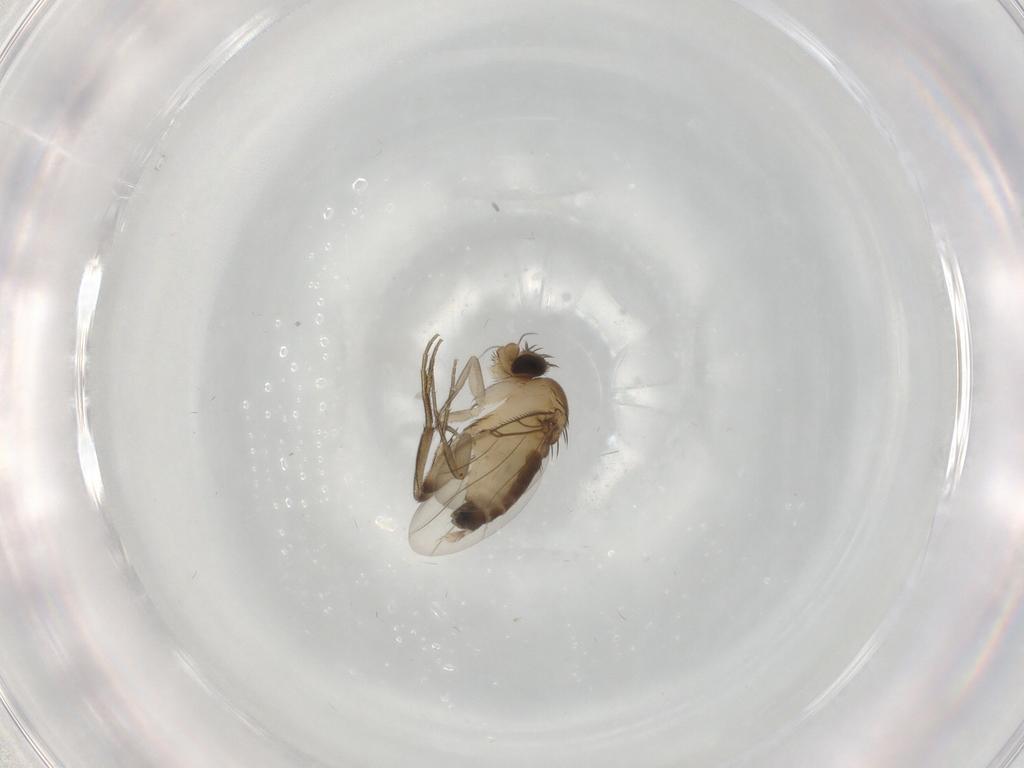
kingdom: Animalia
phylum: Arthropoda
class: Insecta
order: Diptera
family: Phoridae
